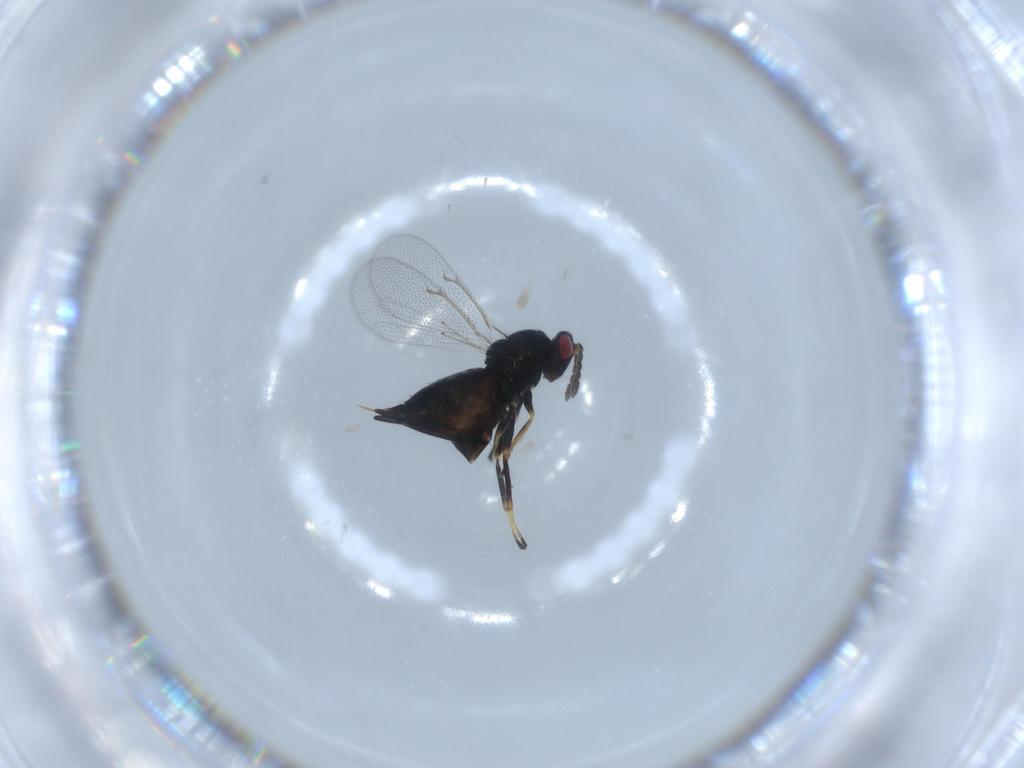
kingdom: Animalia
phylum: Arthropoda
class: Insecta
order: Hymenoptera
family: Eulophidae
